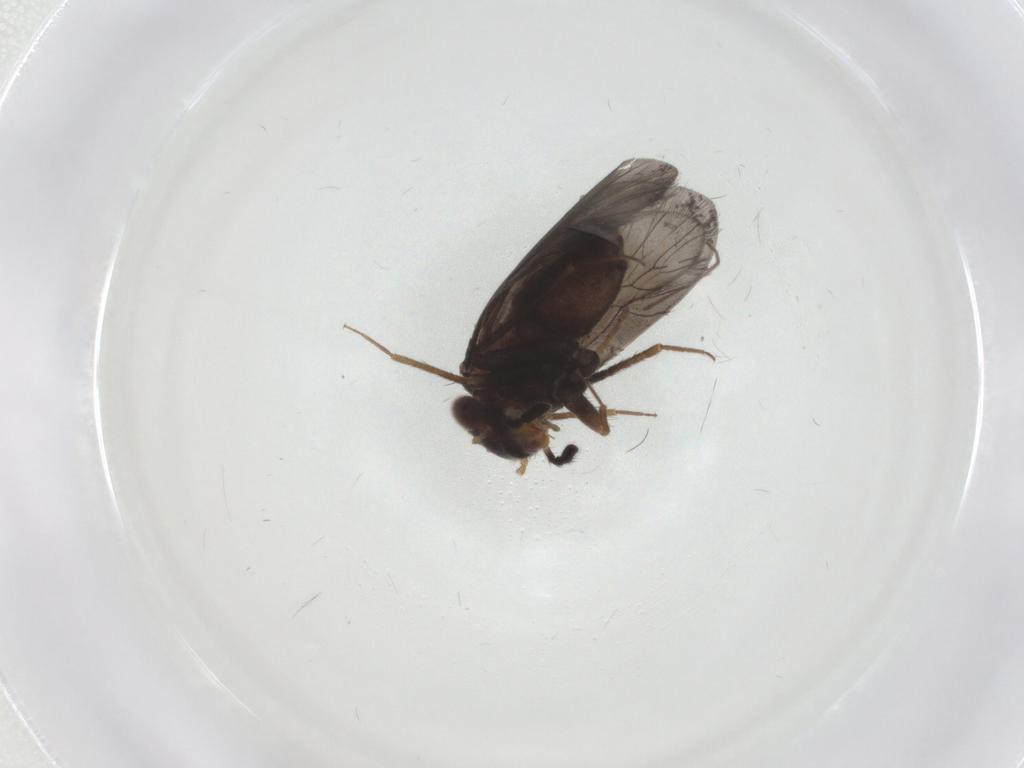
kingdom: Animalia
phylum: Arthropoda
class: Insecta
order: Psocodea
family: Lepidopsocidae
